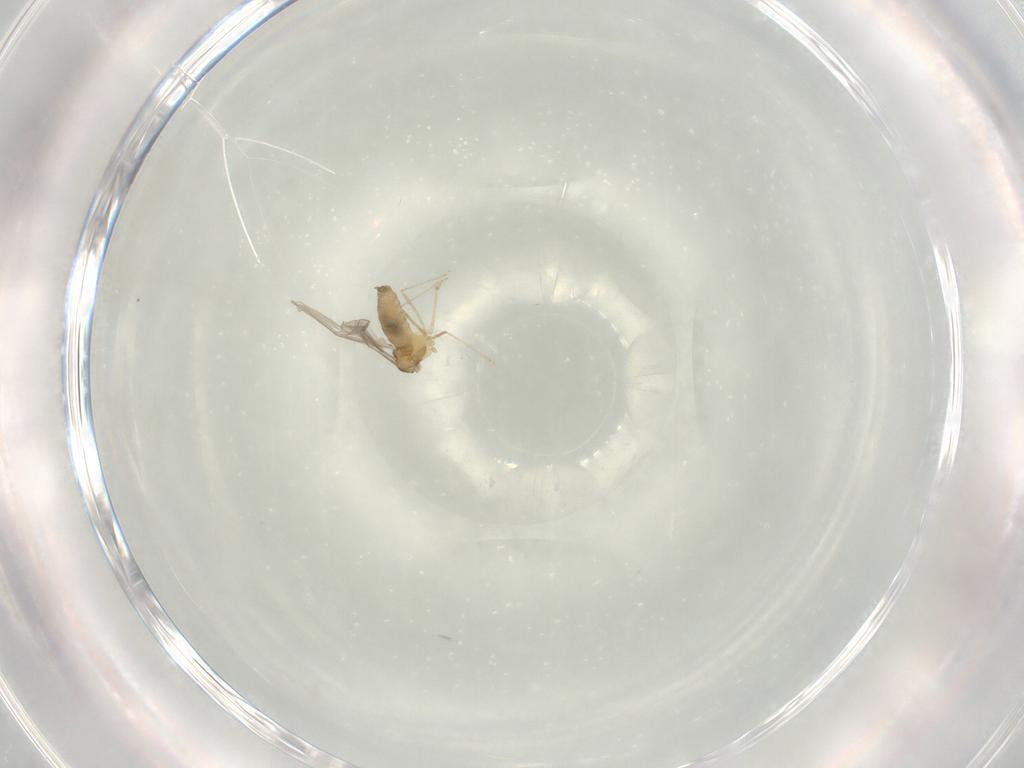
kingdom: Animalia
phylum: Arthropoda
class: Insecta
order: Diptera
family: Cecidomyiidae
